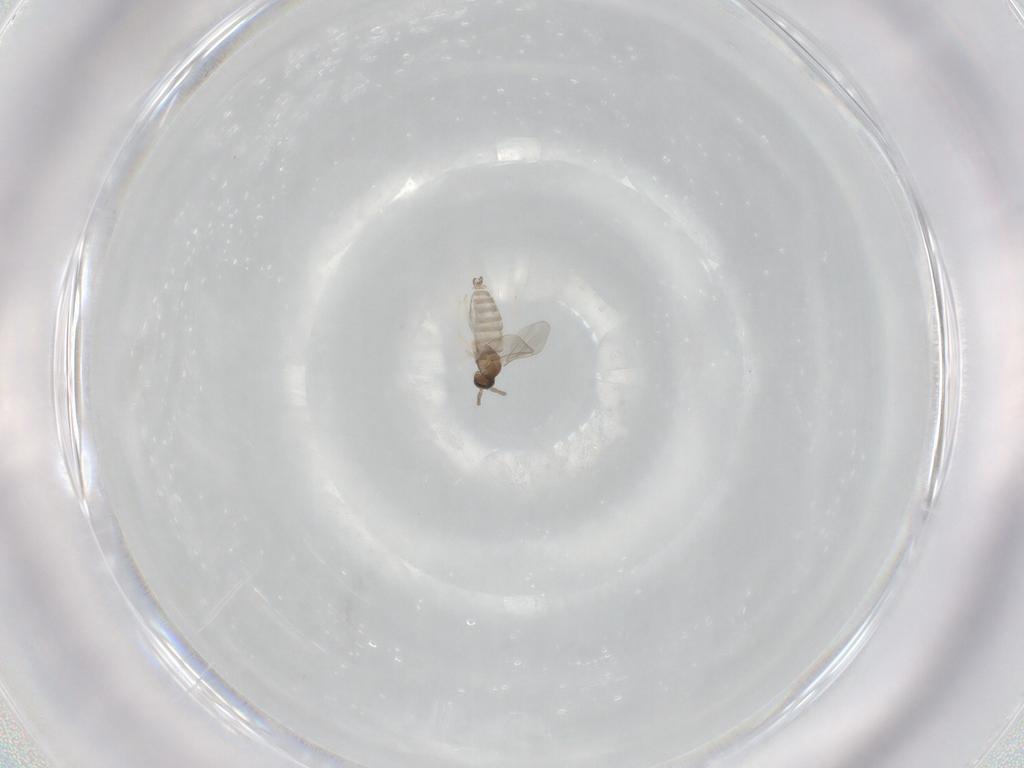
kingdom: Animalia
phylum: Arthropoda
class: Insecta
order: Diptera
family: Cecidomyiidae
